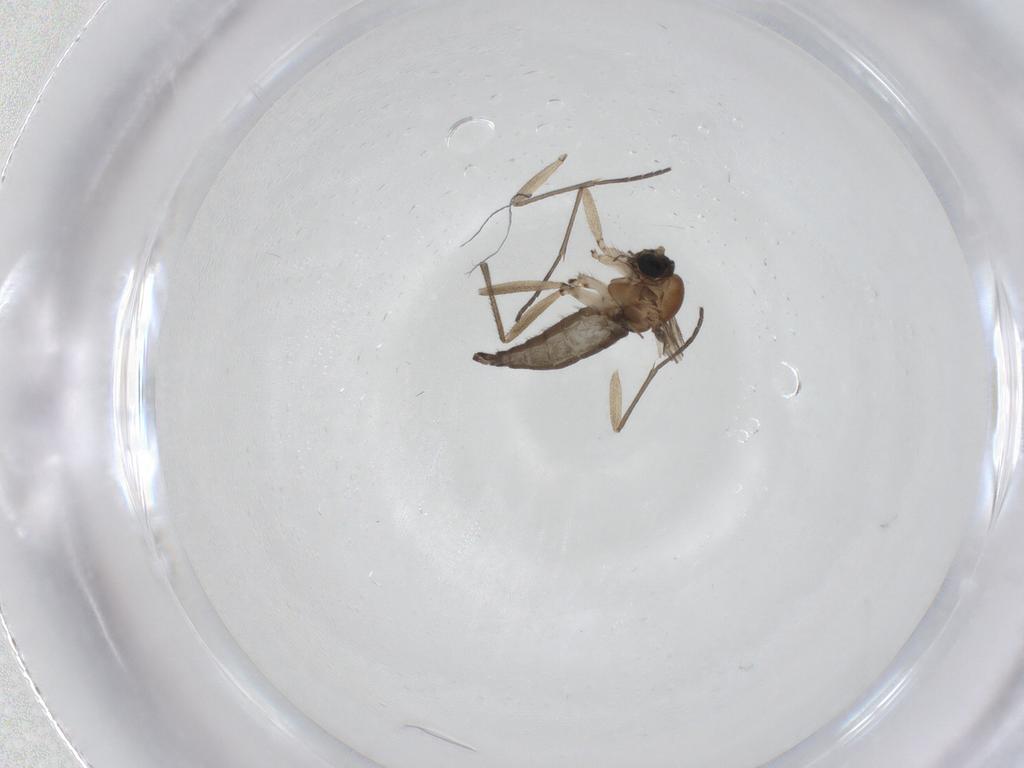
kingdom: Animalia
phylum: Arthropoda
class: Insecta
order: Diptera
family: Sciaridae
